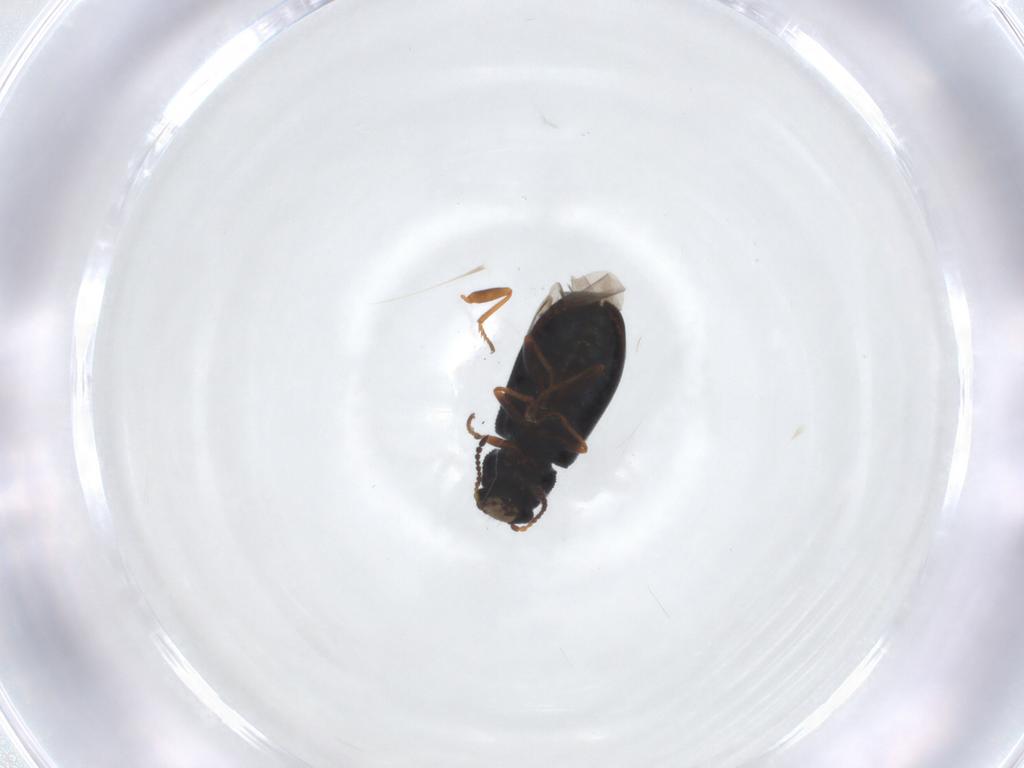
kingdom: Animalia
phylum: Arthropoda
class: Insecta
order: Coleoptera
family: Melyridae
